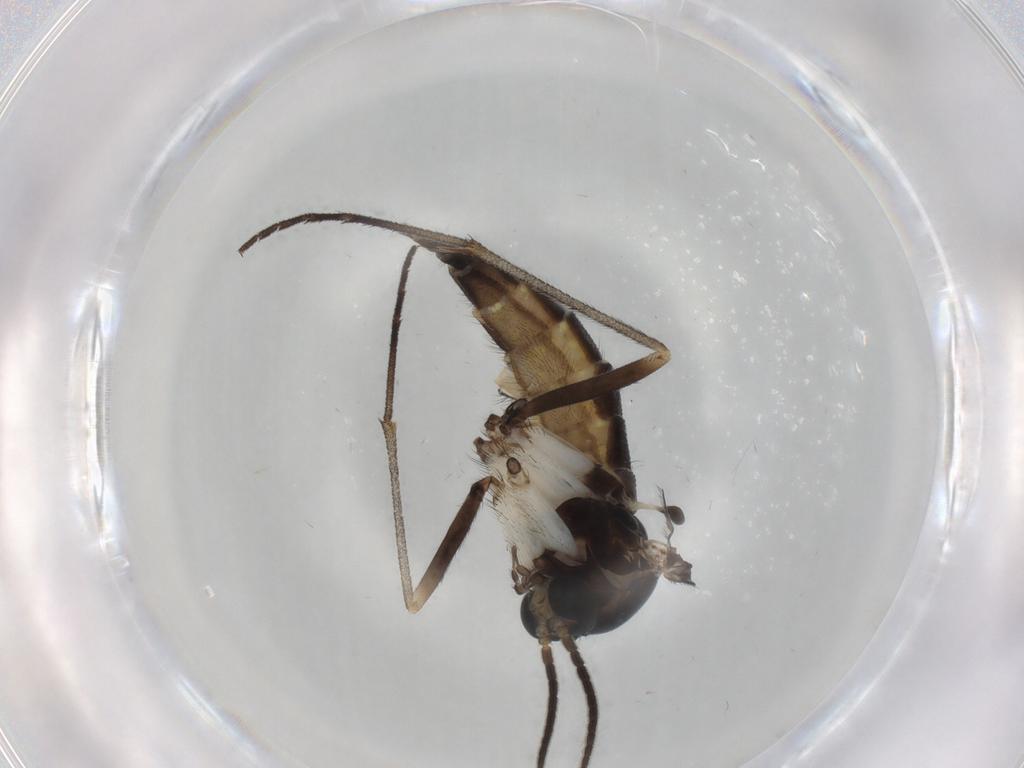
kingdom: Animalia
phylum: Arthropoda
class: Insecta
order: Diptera
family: Sciaridae
